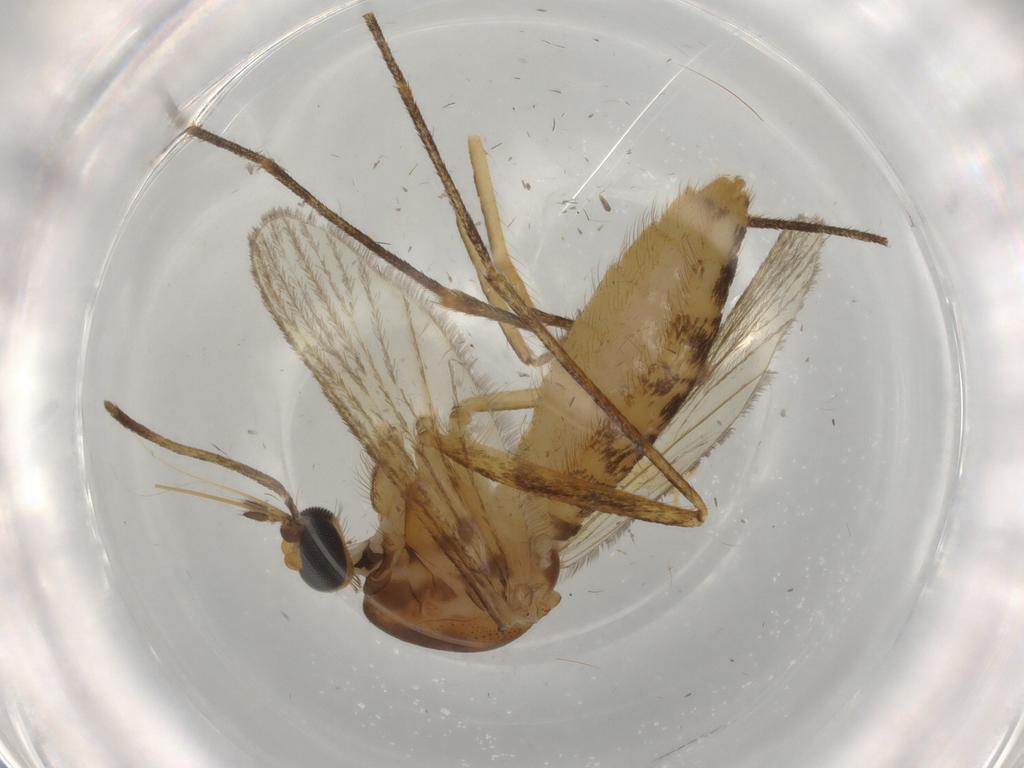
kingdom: Animalia
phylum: Arthropoda
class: Insecta
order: Diptera
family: Culicidae
